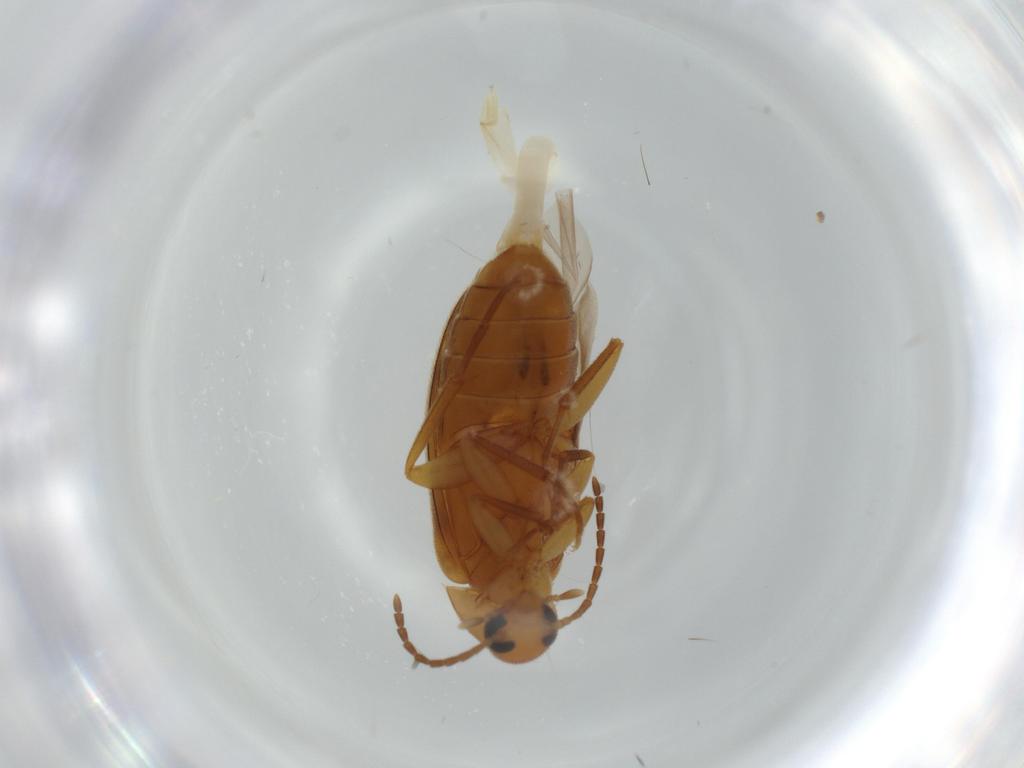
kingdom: Animalia
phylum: Arthropoda
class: Insecta
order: Coleoptera
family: Scraptiidae
